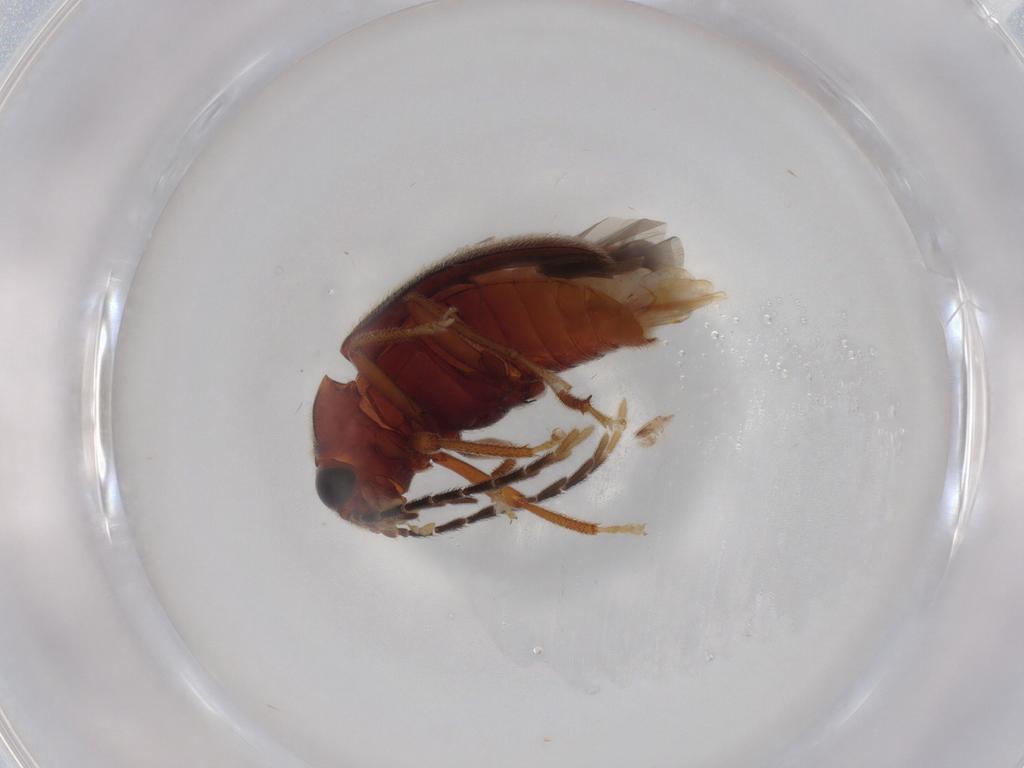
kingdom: Animalia
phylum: Arthropoda
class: Insecta
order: Coleoptera
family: Ptilodactylidae
